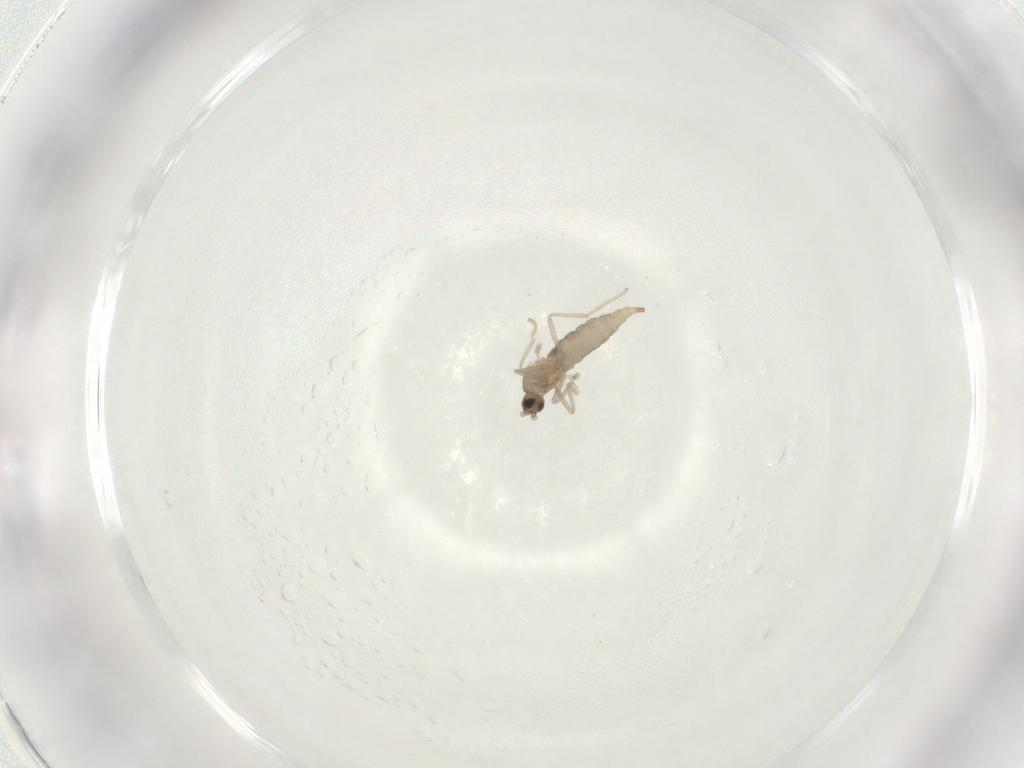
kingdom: Animalia
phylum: Arthropoda
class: Insecta
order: Diptera
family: Cecidomyiidae
